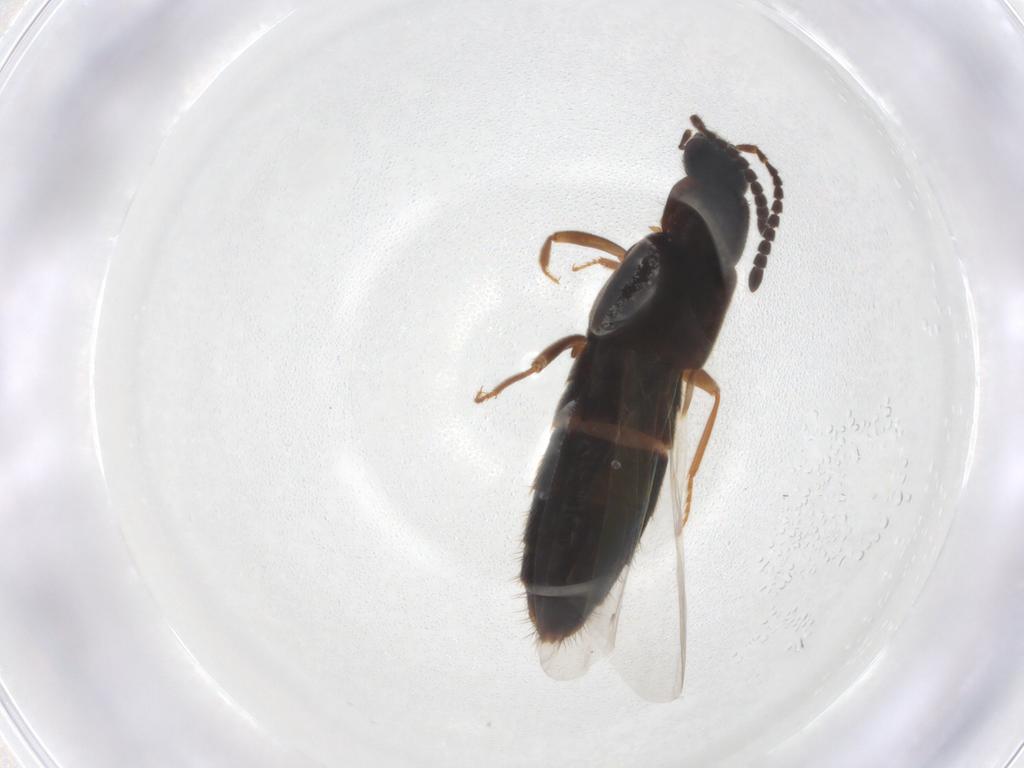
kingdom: Animalia
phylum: Arthropoda
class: Insecta
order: Coleoptera
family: Staphylinidae
